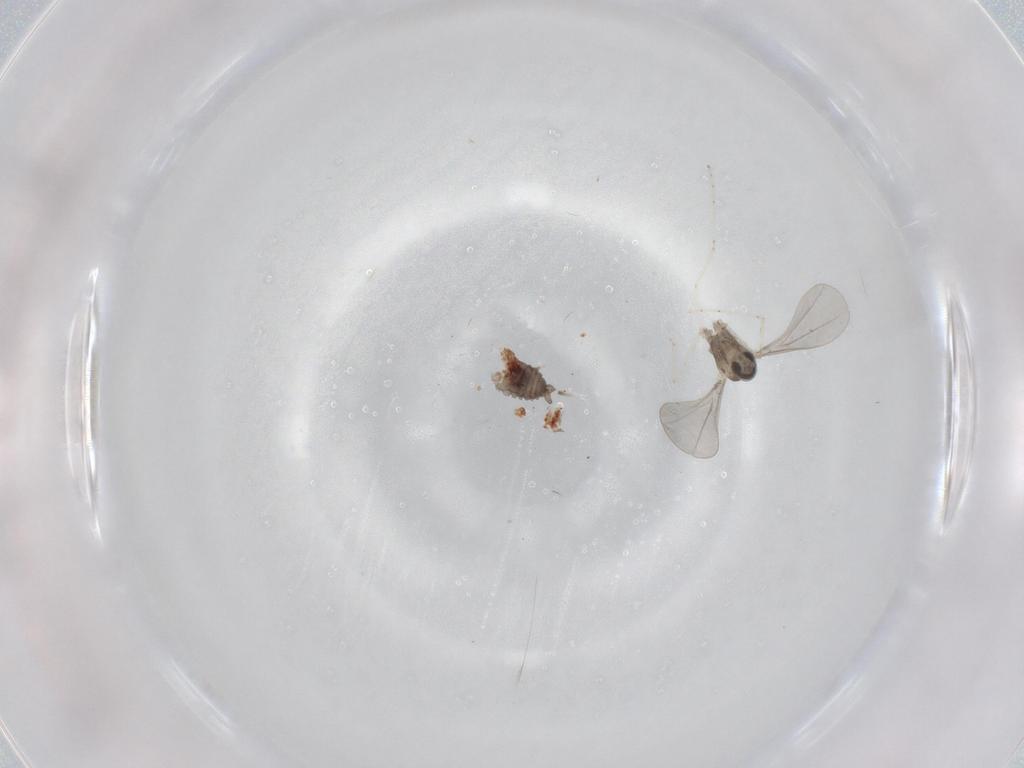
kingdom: Animalia
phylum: Arthropoda
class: Insecta
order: Diptera
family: Cecidomyiidae
